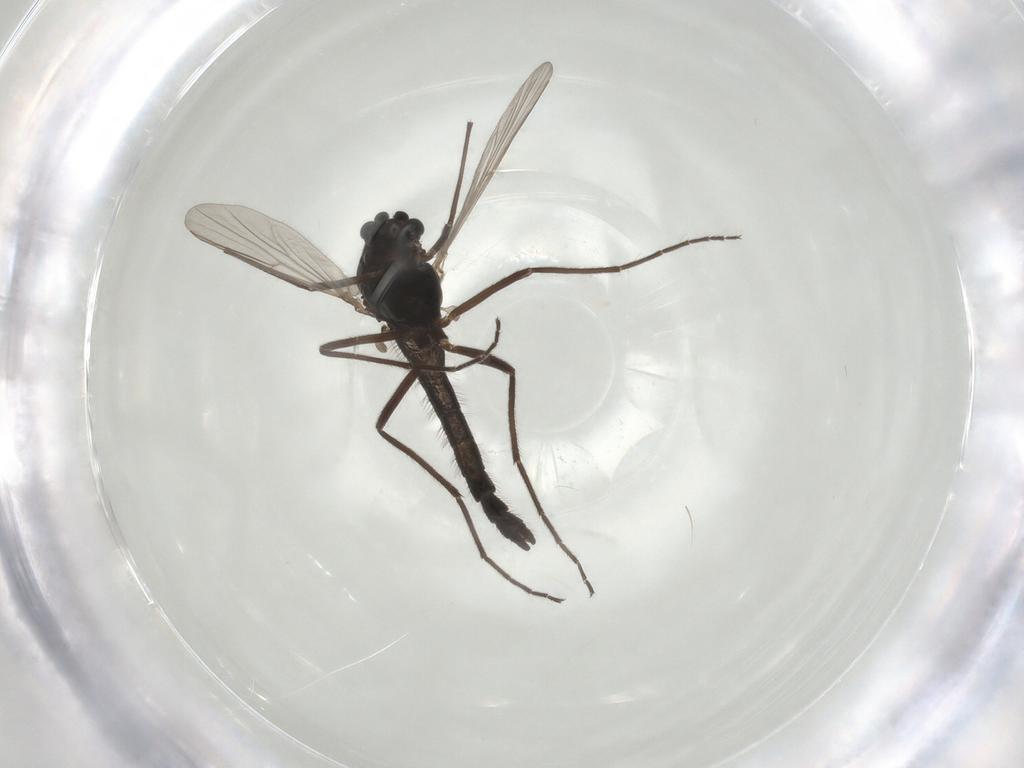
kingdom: Animalia
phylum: Arthropoda
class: Insecta
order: Diptera
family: Chironomidae
